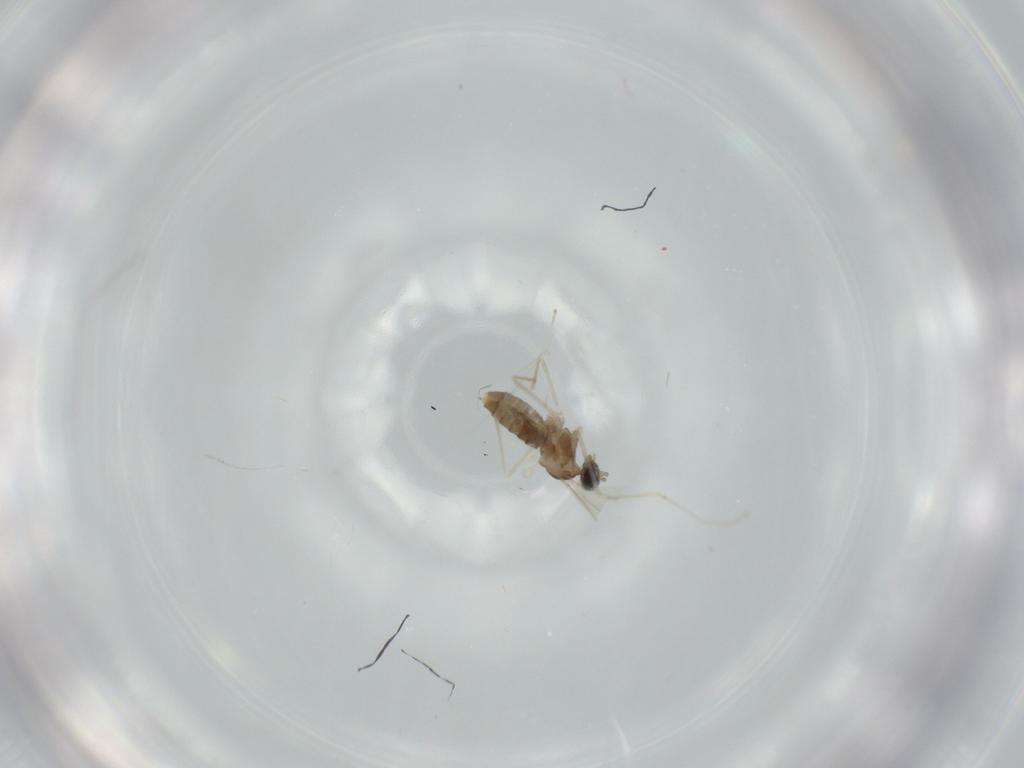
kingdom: Animalia
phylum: Arthropoda
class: Insecta
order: Diptera
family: Cecidomyiidae
